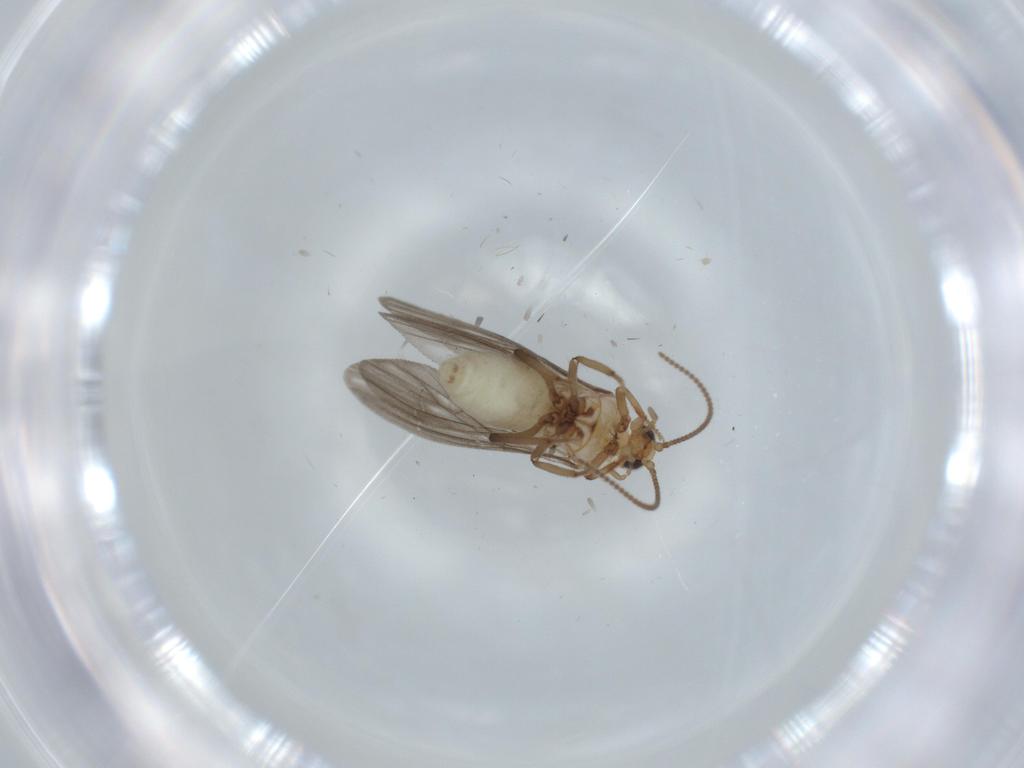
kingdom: Animalia
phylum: Arthropoda
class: Insecta
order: Neuroptera
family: Coniopterygidae
